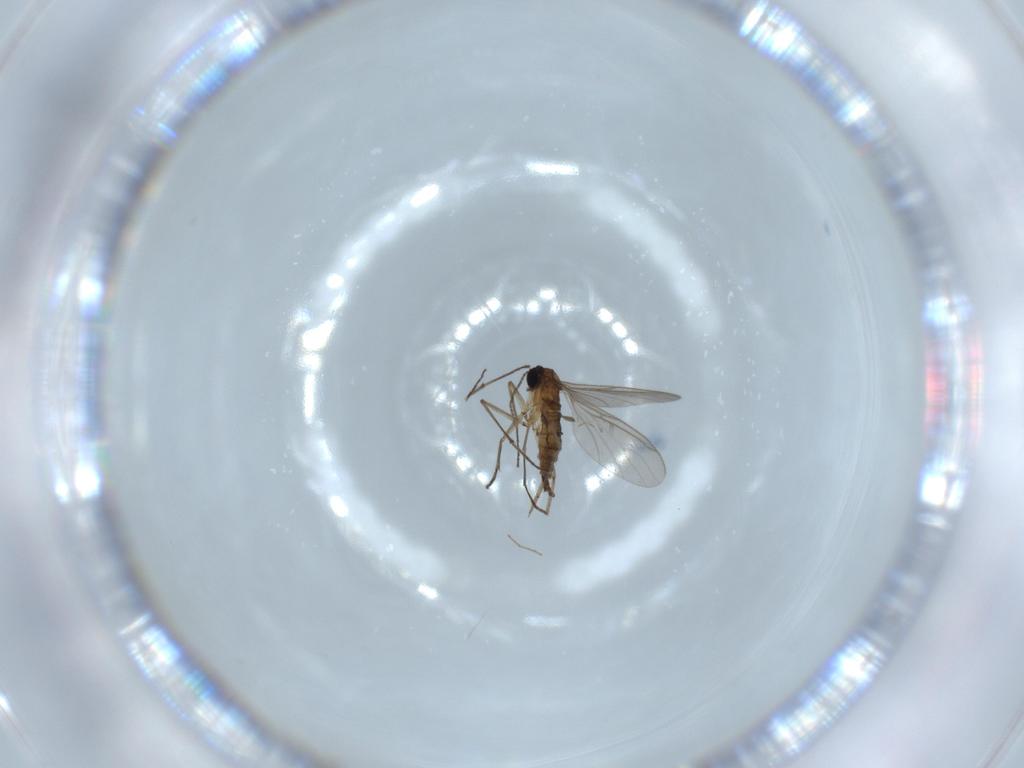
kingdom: Animalia
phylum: Arthropoda
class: Insecta
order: Diptera
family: Sciaridae
